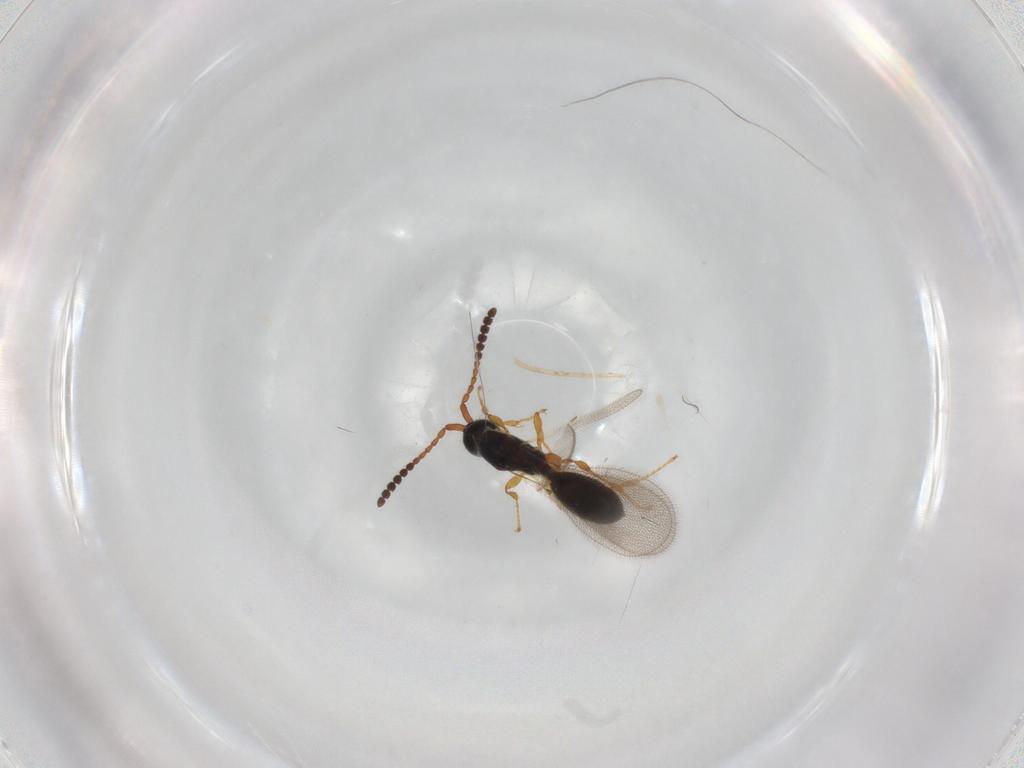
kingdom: Animalia
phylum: Arthropoda
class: Insecta
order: Hymenoptera
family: Diapriidae
